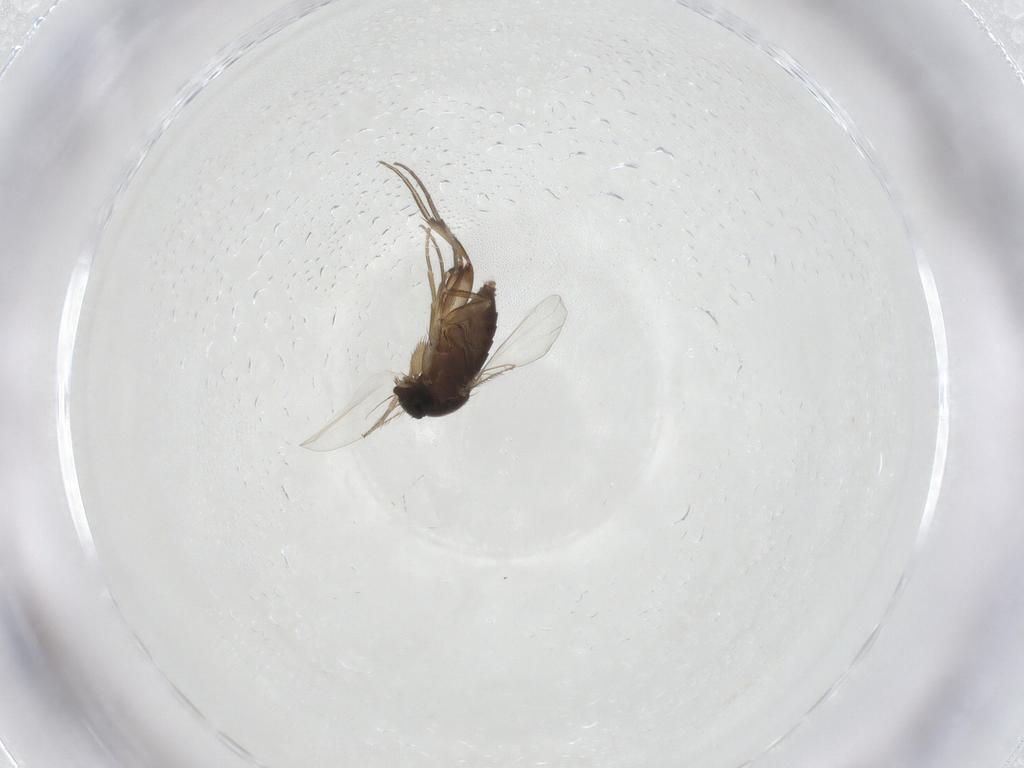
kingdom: Animalia
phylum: Arthropoda
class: Insecta
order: Diptera
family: Phoridae
